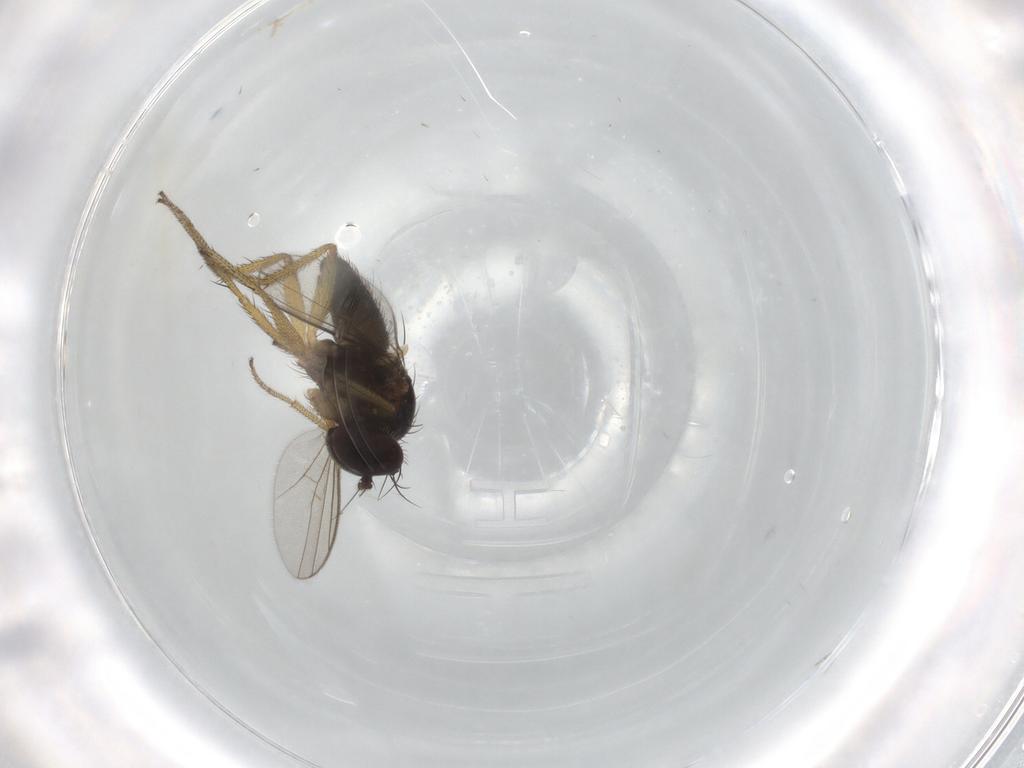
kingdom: Animalia
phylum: Arthropoda
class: Insecta
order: Diptera
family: Dolichopodidae
